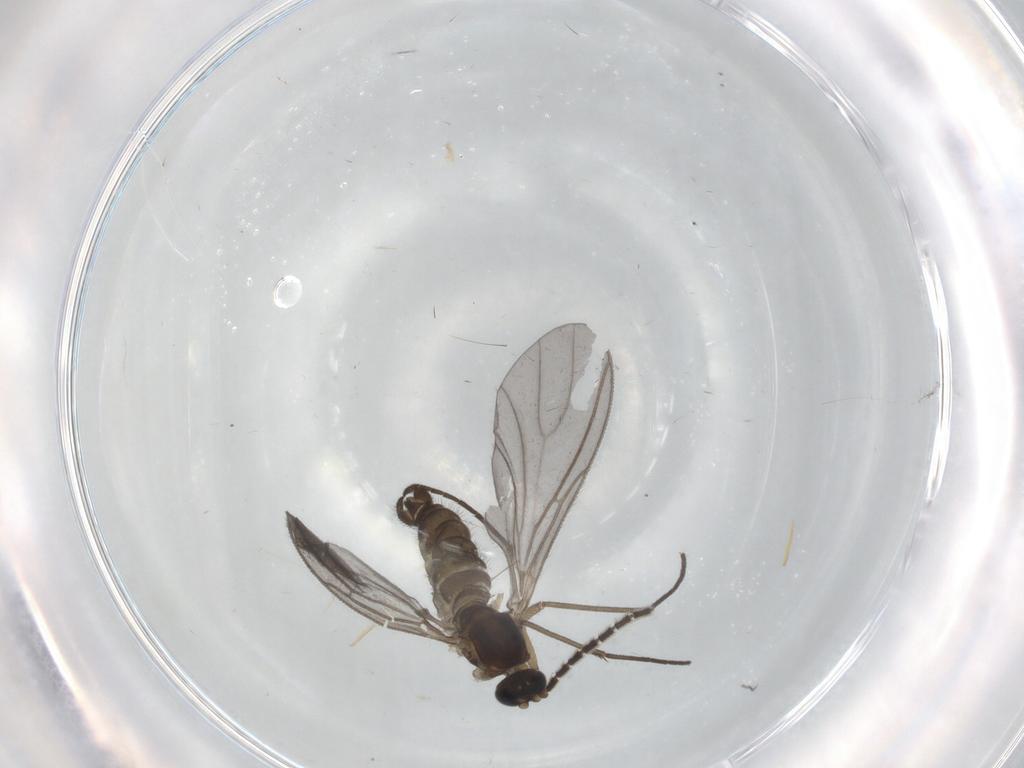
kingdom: Animalia
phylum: Arthropoda
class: Insecta
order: Diptera
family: Sciaridae
